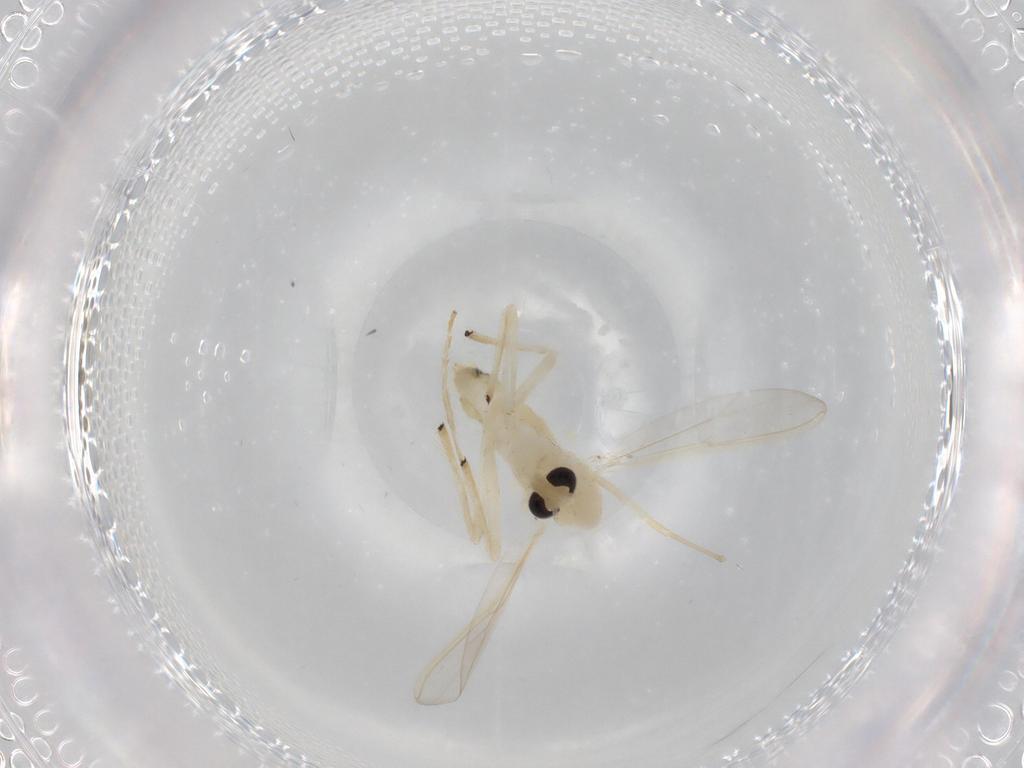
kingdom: Animalia
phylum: Arthropoda
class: Insecta
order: Diptera
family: Chironomidae
